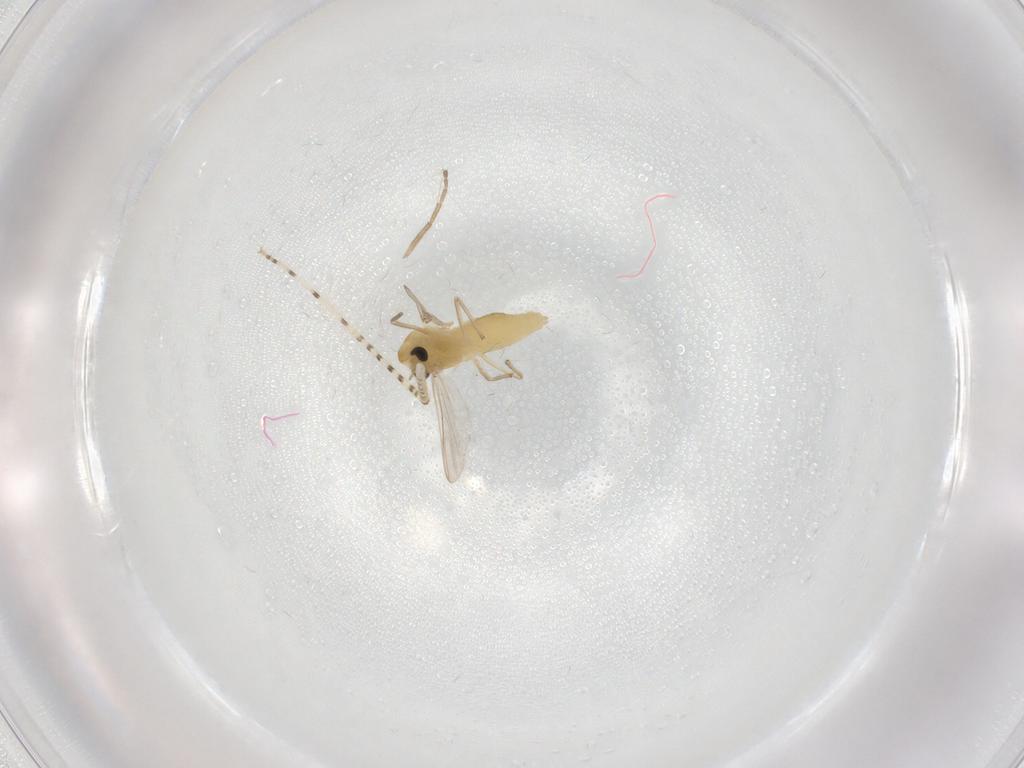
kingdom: Animalia
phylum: Arthropoda
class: Insecta
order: Diptera
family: Chironomidae
